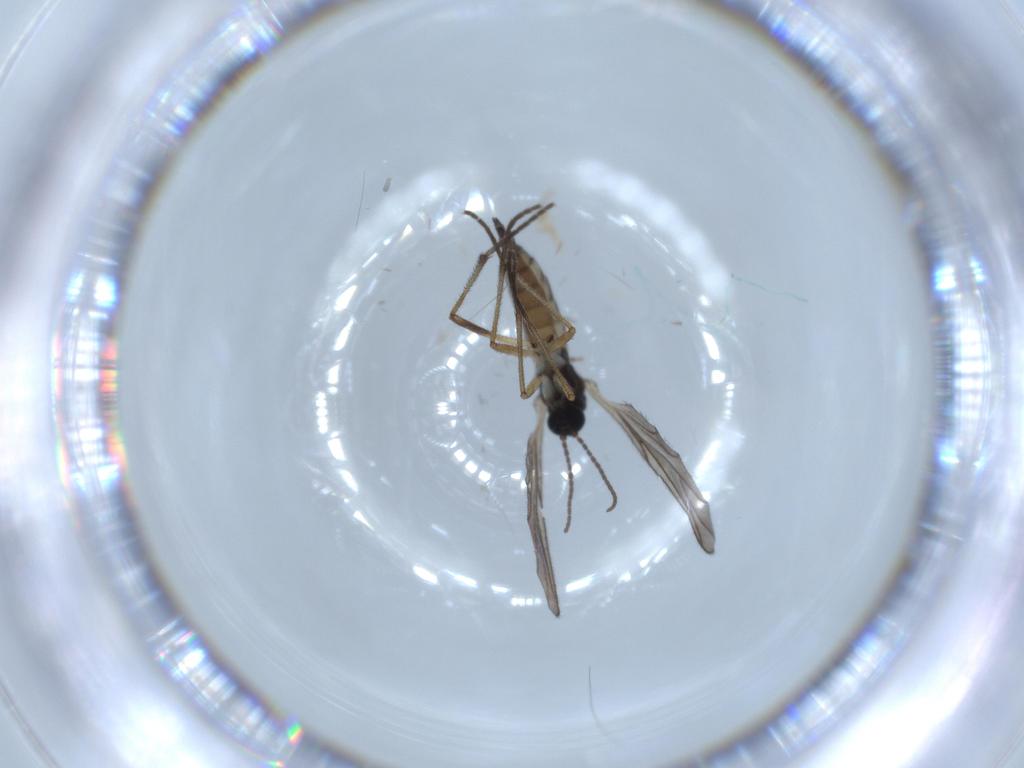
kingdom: Animalia
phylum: Arthropoda
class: Insecta
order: Diptera
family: Sciaridae
